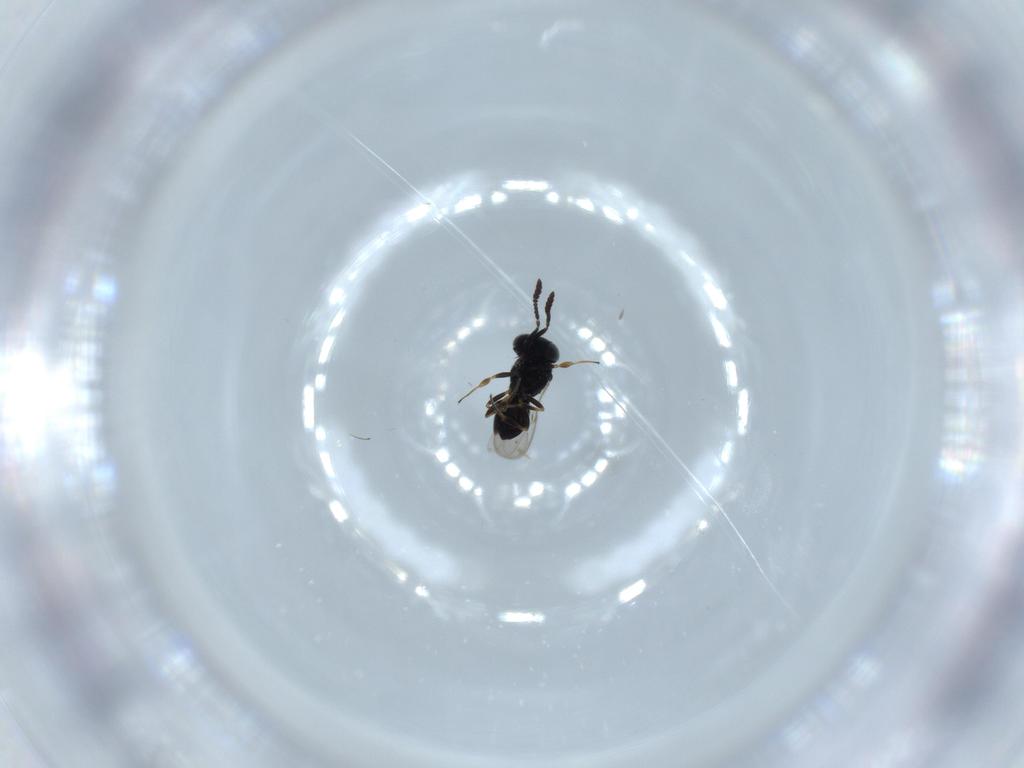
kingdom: Animalia
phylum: Arthropoda
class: Insecta
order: Hymenoptera
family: Scelionidae
